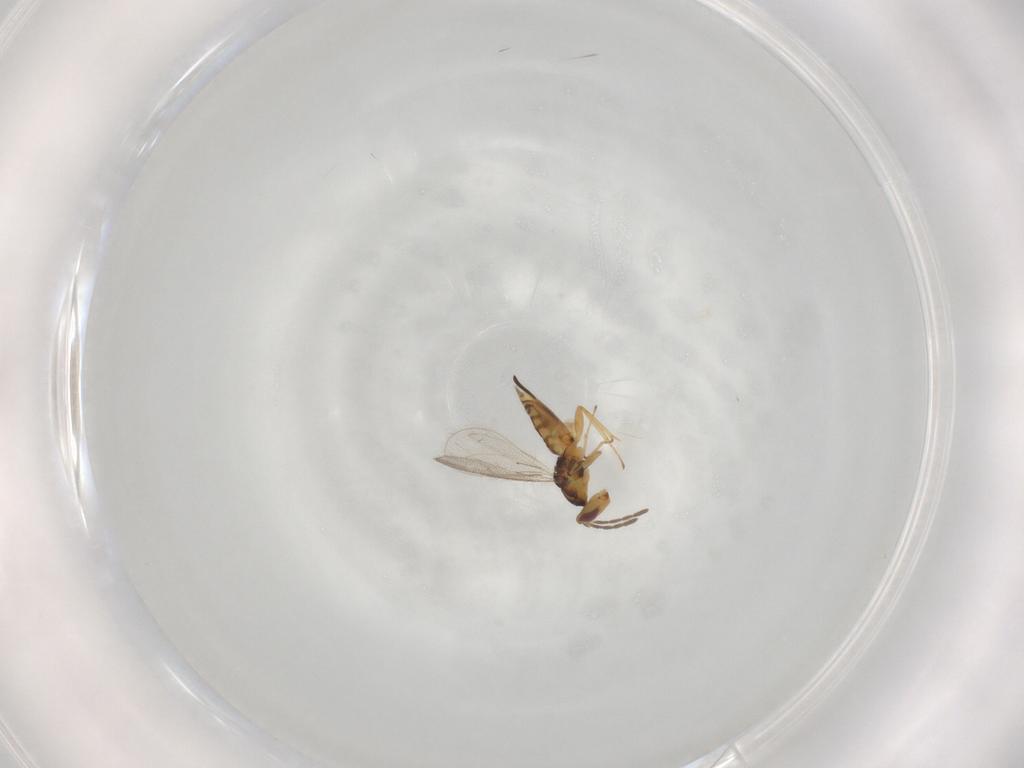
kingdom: Animalia
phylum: Arthropoda
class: Insecta
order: Hymenoptera
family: Eulophidae
